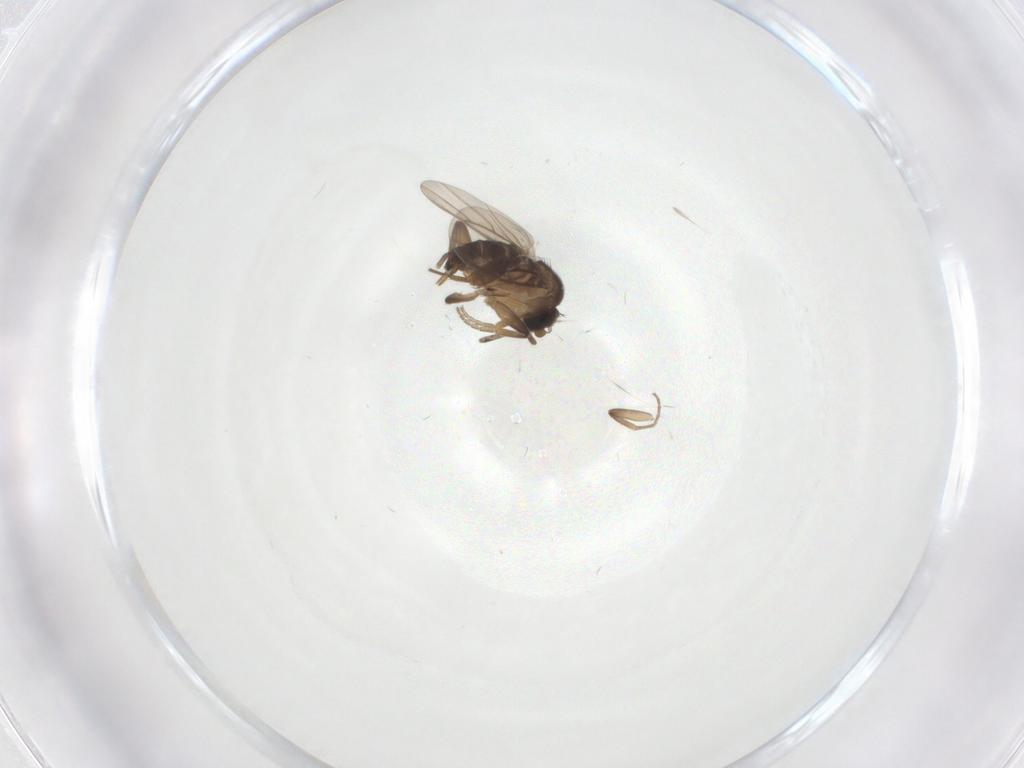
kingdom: Animalia
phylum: Arthropoda
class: Insecta
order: Diptera
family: Phoridae
